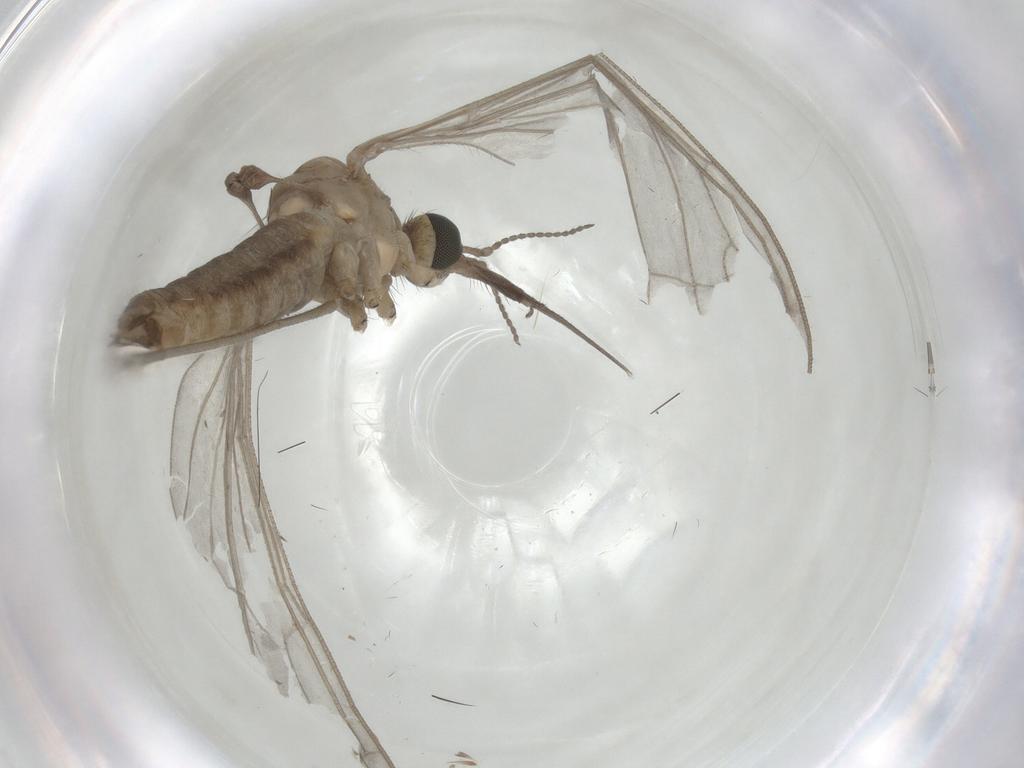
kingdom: Animalia
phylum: Arthropoda
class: Insecta
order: Diptera
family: Limoniidae
